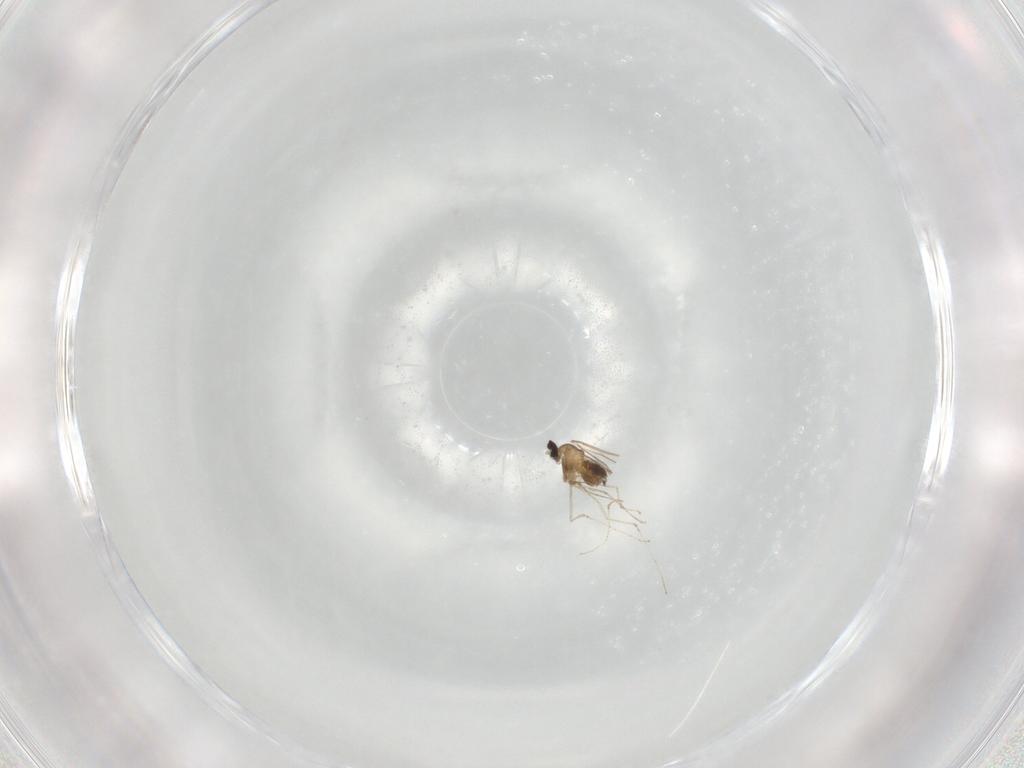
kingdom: Animalia
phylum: Arthropoda
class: Insecta
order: Diptera
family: Cecidomyiidae
